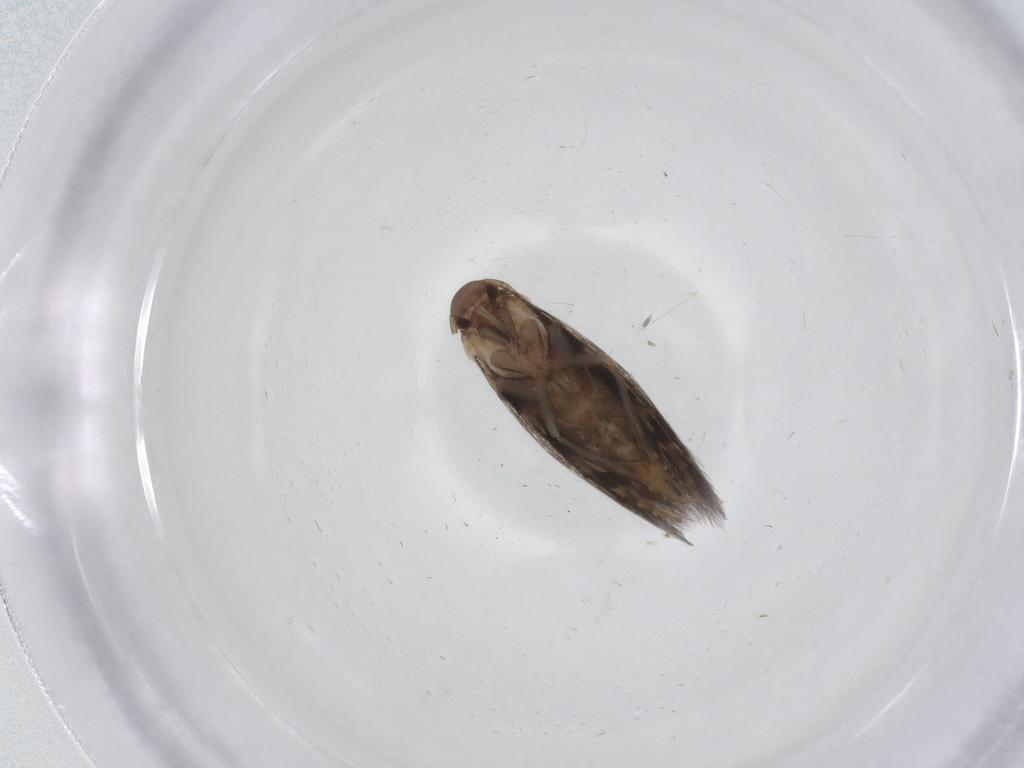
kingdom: Animalia
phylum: Arthropoda
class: Insecta
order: Lepidoptera
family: Elachistidae
